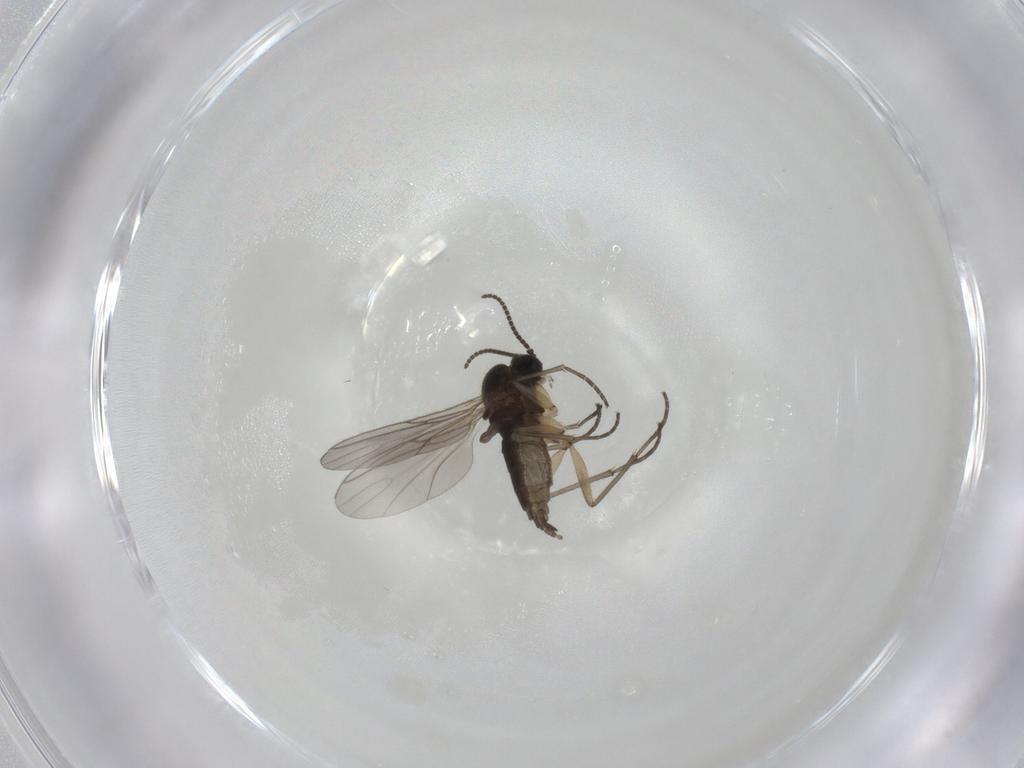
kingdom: Animalia
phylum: Arthropoda
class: Insecta
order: Diptera
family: Sciaridae
